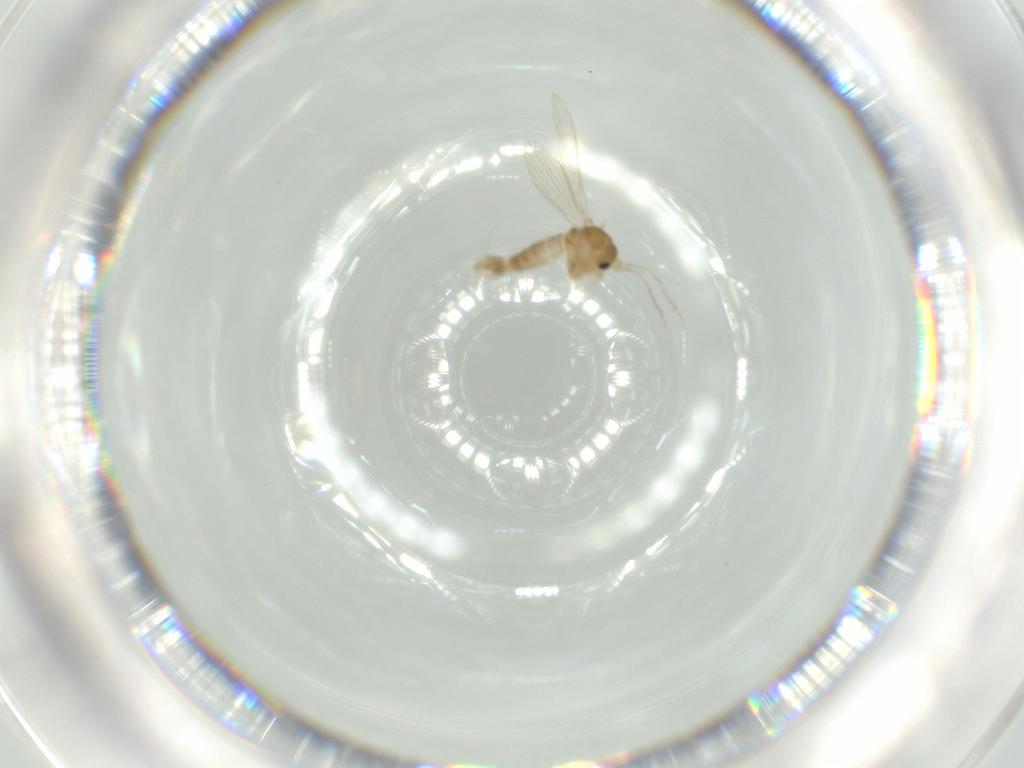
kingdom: Animalia
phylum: Arthropoda
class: Insecta
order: Diptera
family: Psychodidae
